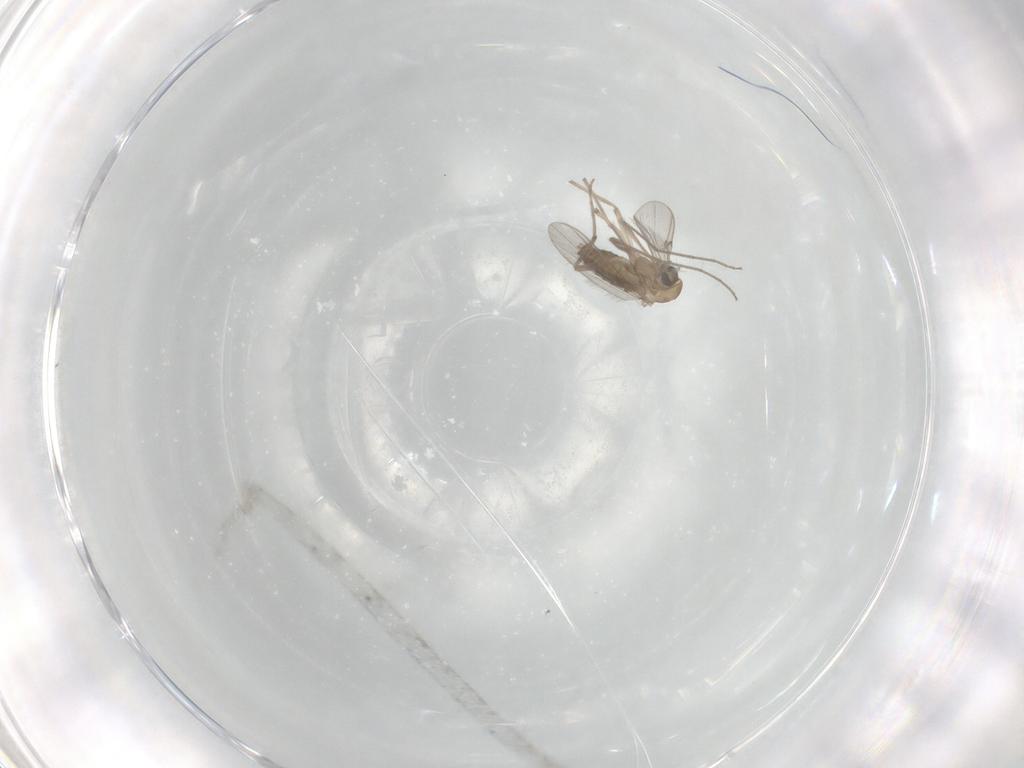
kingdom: Animalia
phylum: Arthropoda
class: Insecta
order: Diptera
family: Chironomidae
